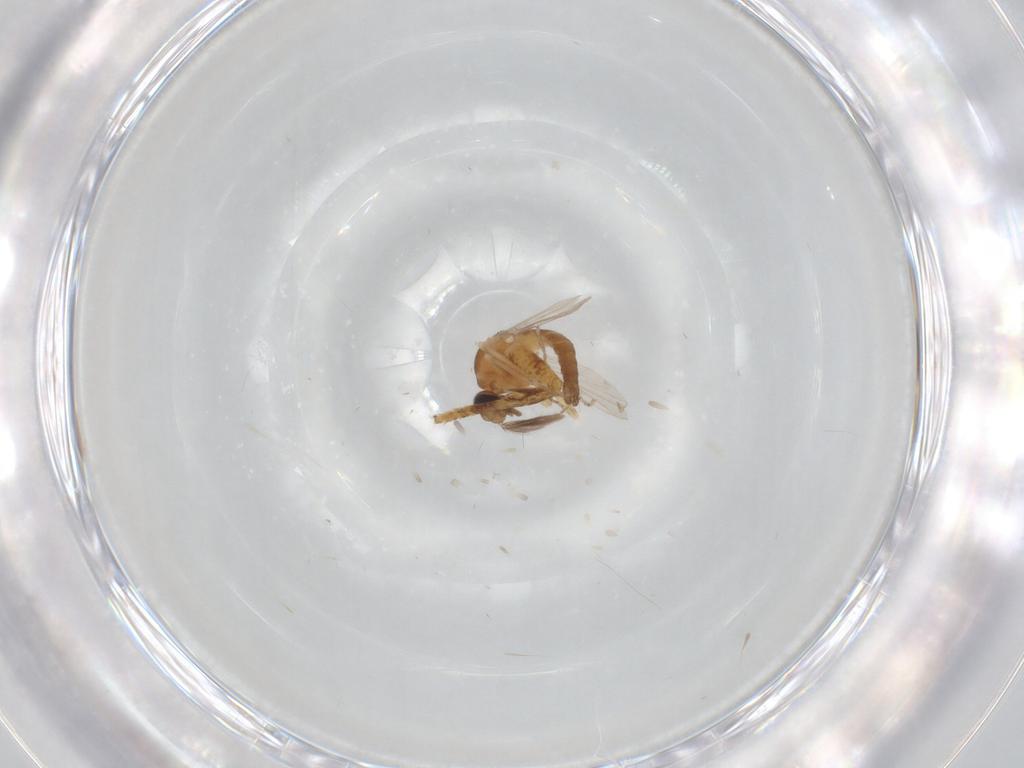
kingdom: Animalia
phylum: Arthropoda
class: Insecta
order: Diptera
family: Ceratopogonidae
